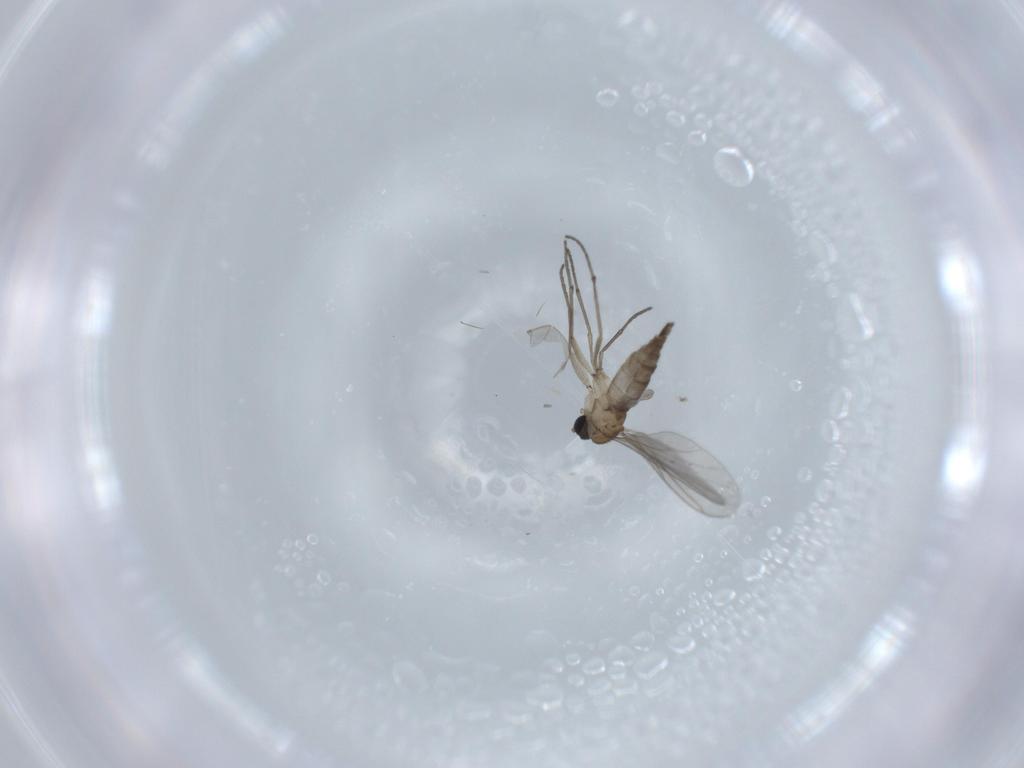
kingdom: Animalia
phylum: Arthropoda
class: Insecta
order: Diptera
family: Sciaridae
